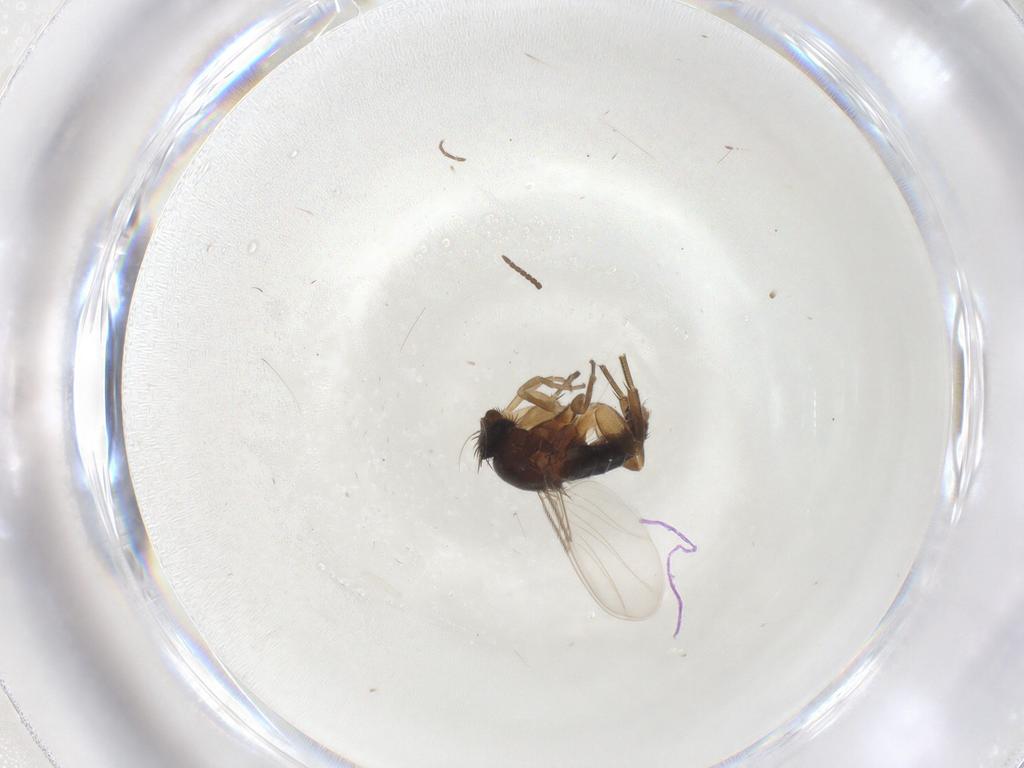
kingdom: Animalia
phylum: Arthropoda
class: Insecta
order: Diptera
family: Phoridae
